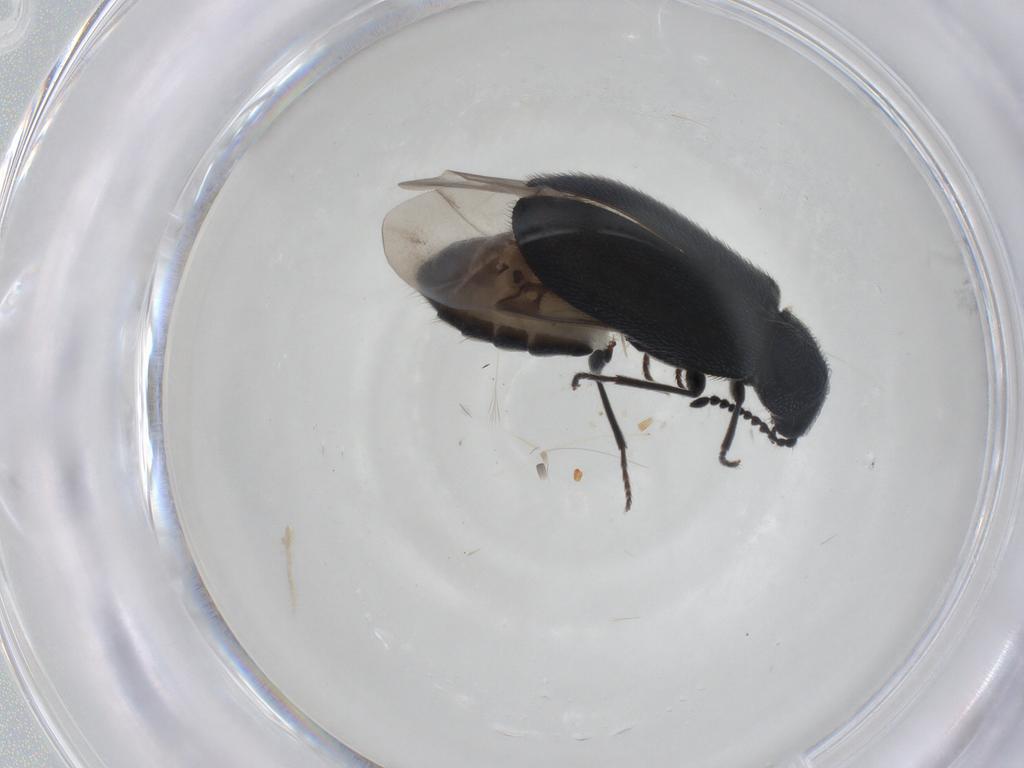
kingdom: Animalia
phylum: Arthropoda
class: Insecta
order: Coleoptera
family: Melyridae
